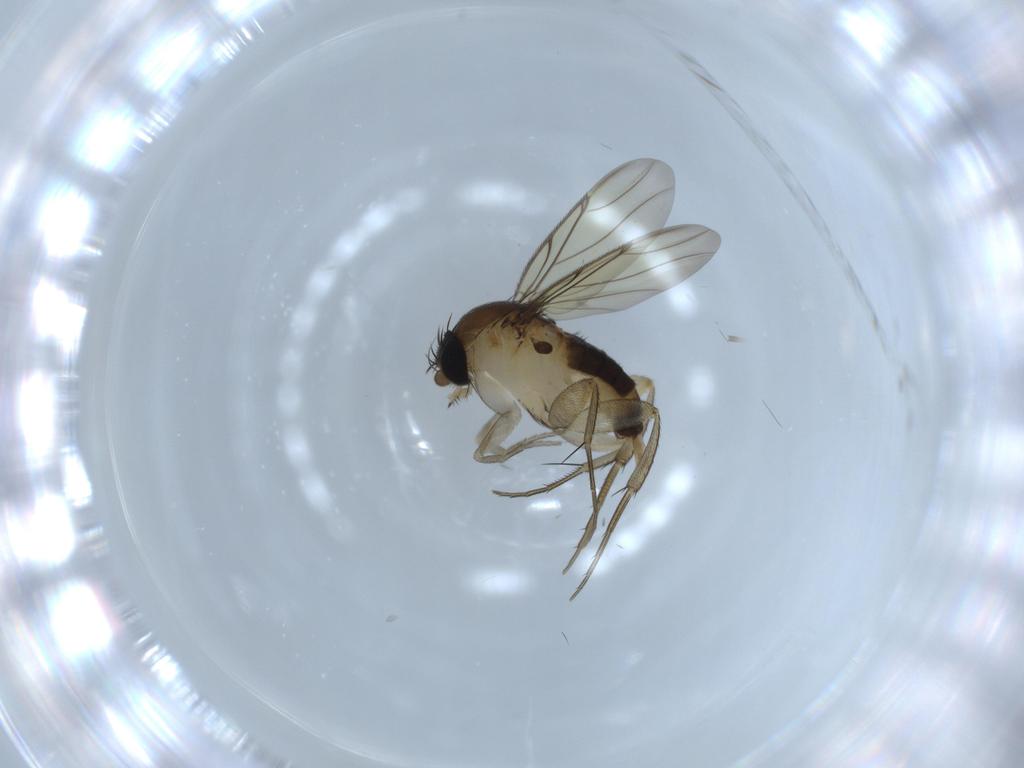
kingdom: Animalia
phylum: Arthropoda
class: Insecta
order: Diptera
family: Phoridae
